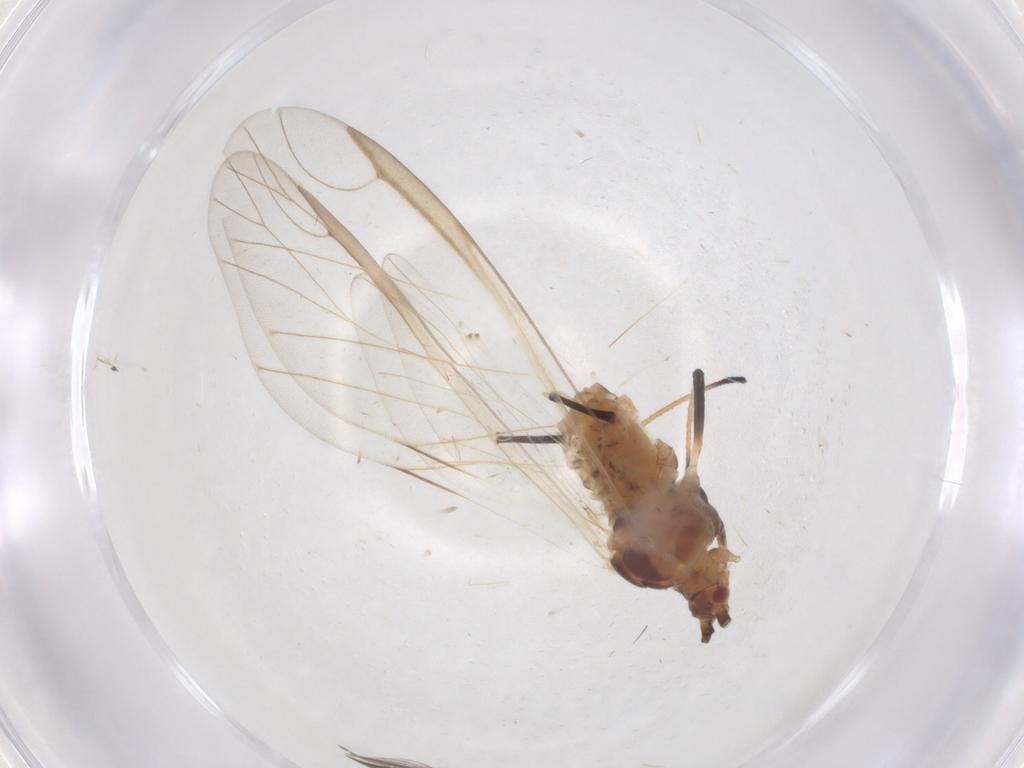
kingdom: Animalia
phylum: Arthropoda
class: Insecta
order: Hemiptera
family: Aphididae
